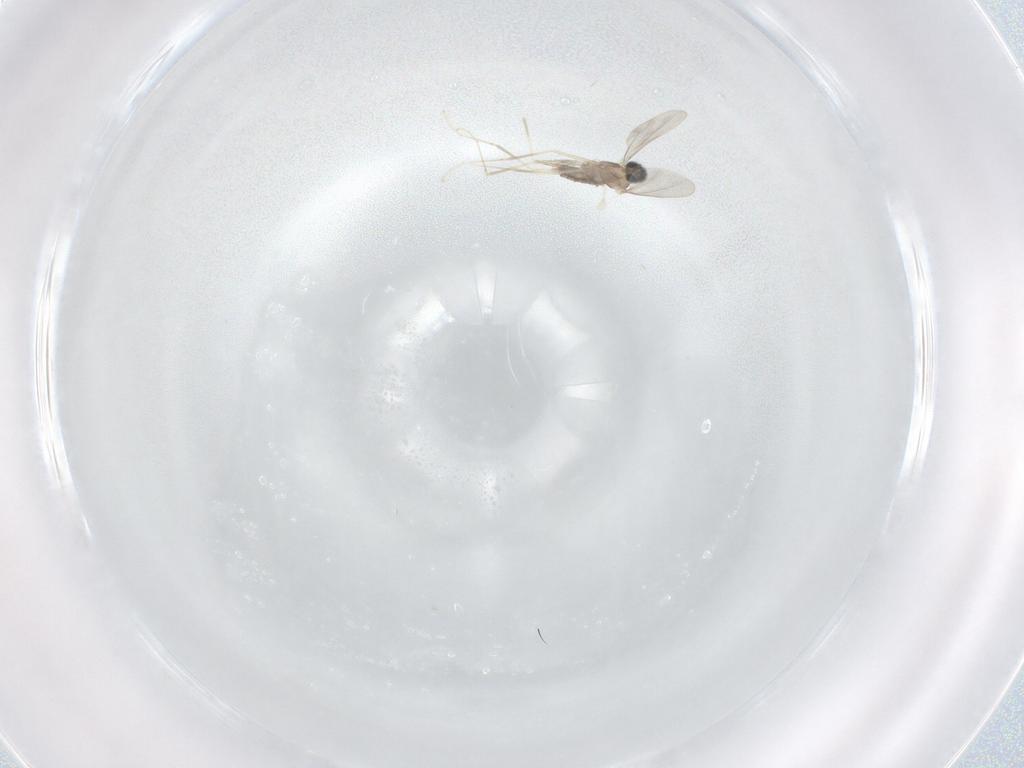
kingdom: Animalia
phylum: Arthropoda
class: Insecta
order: Diptera
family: Cecidomyiidae
